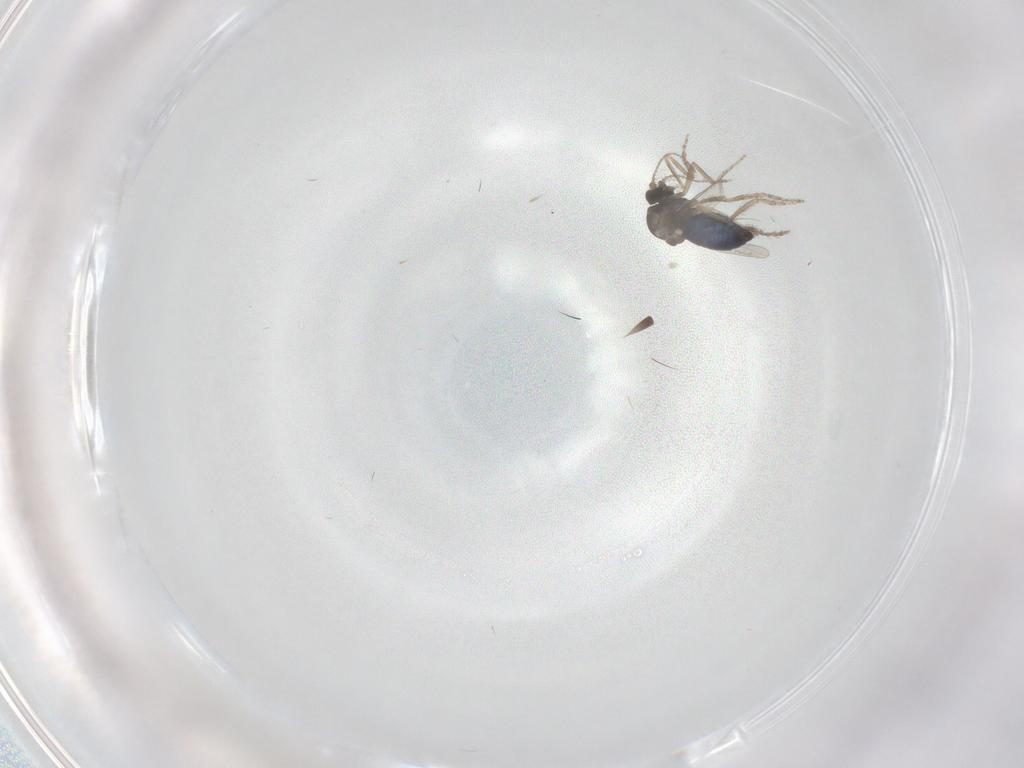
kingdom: Animalia
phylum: Arthropoda
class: Insecta
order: Diptera
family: Ceratopogonidae
